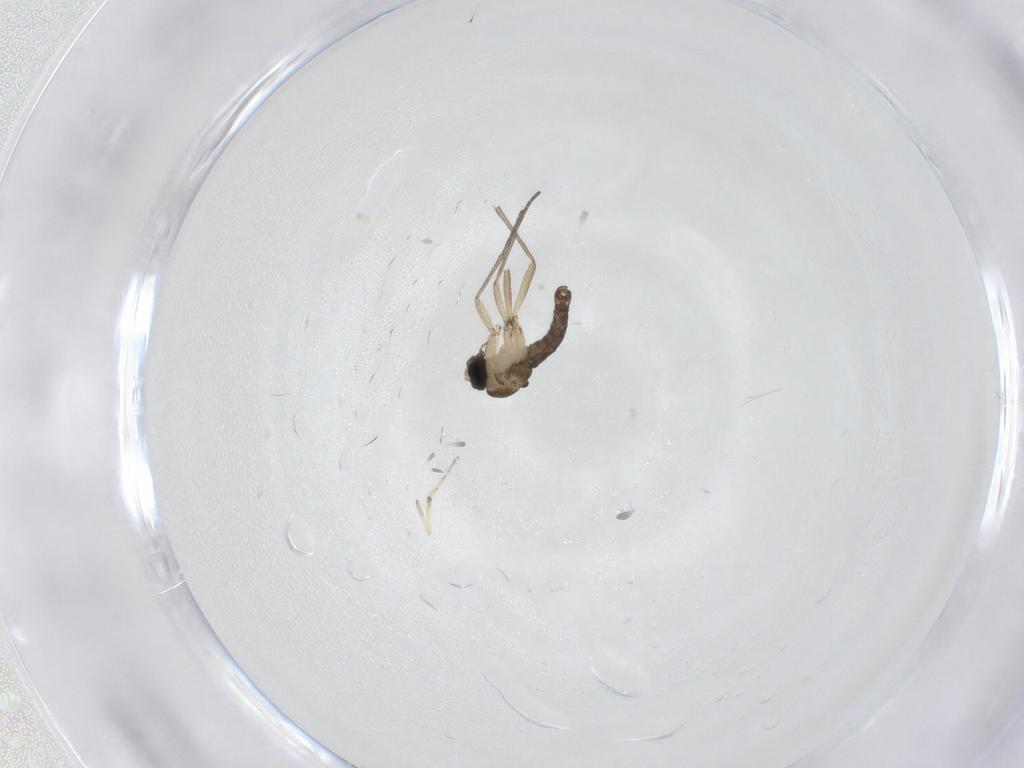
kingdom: Animalia
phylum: Arthropoda
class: Insecta
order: Diptera
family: Ceratopogonidae
